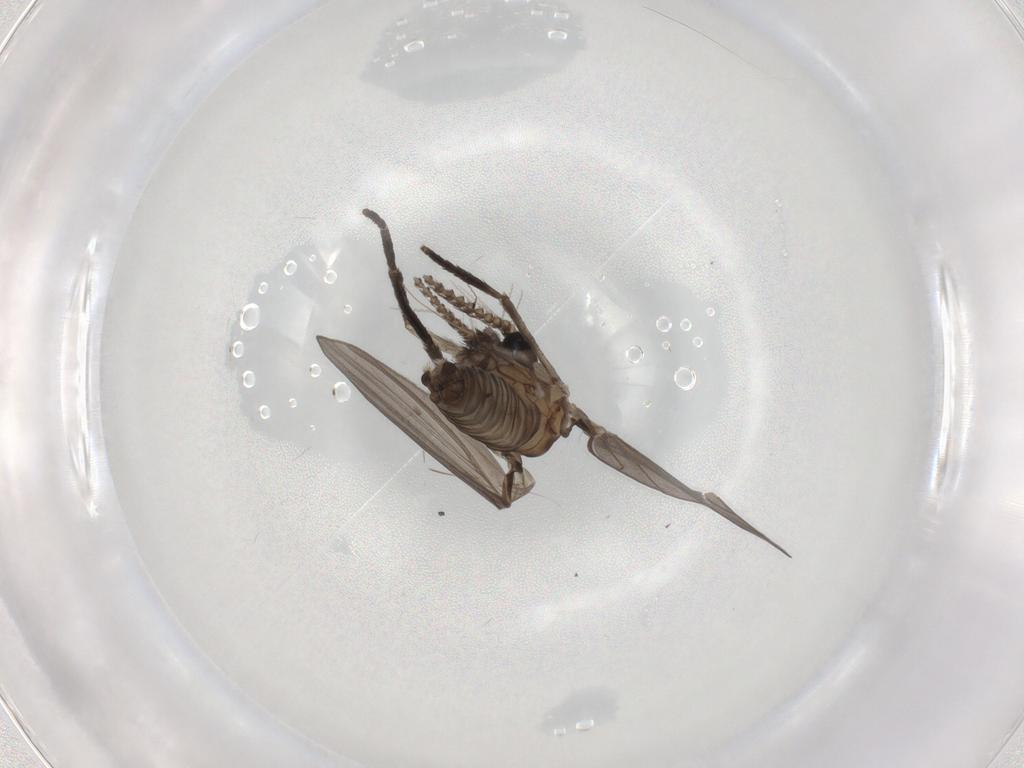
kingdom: Animalia
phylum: Arthropoda
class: Insecta
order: Diptera
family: Psychodidae
